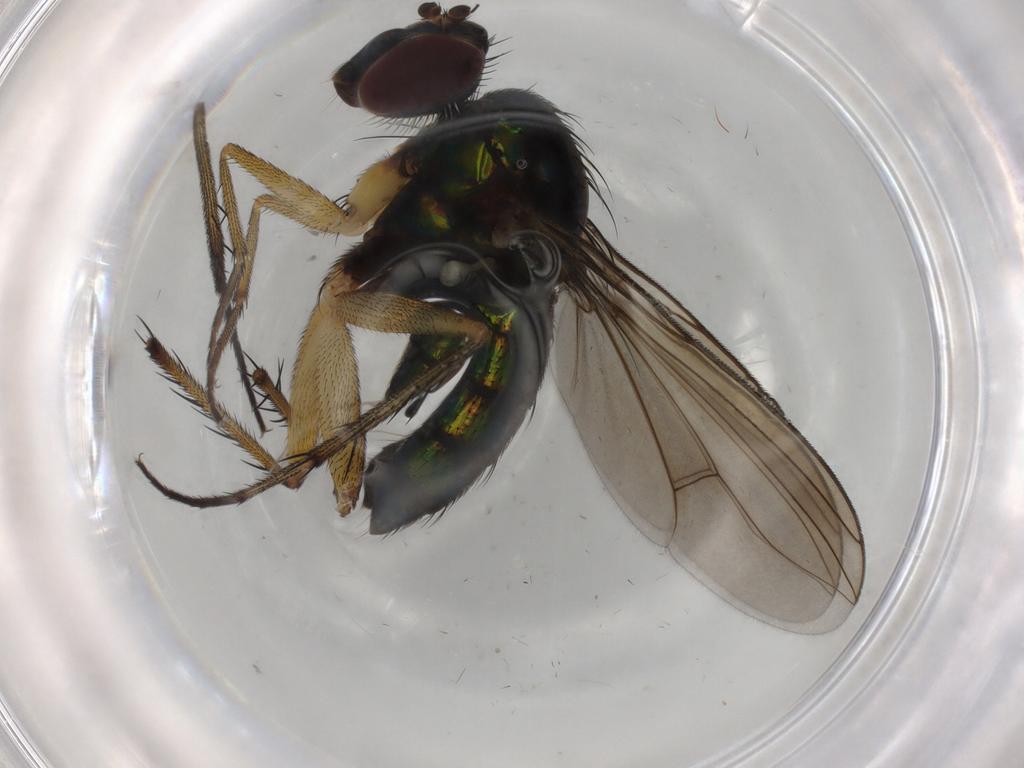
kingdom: Animalia
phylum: Arthropoda
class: Insecta
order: Diptera
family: Dolichopodidae
